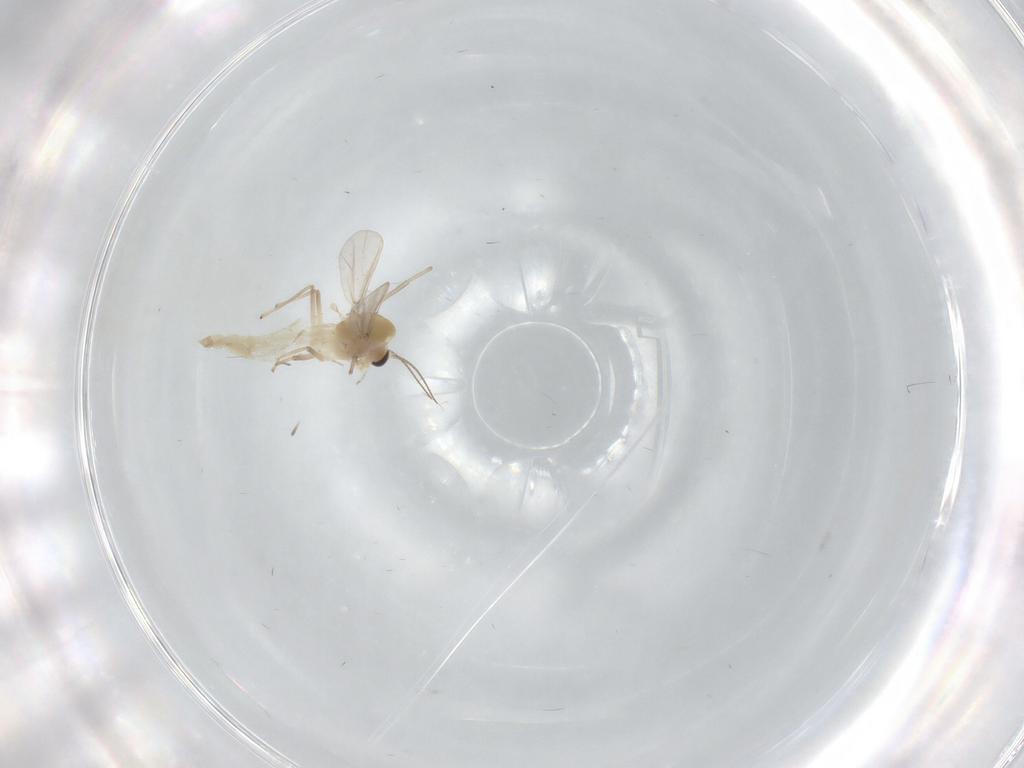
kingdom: Animalia
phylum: Arthropoda
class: Insecta
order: Diptera
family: Chironomidae
